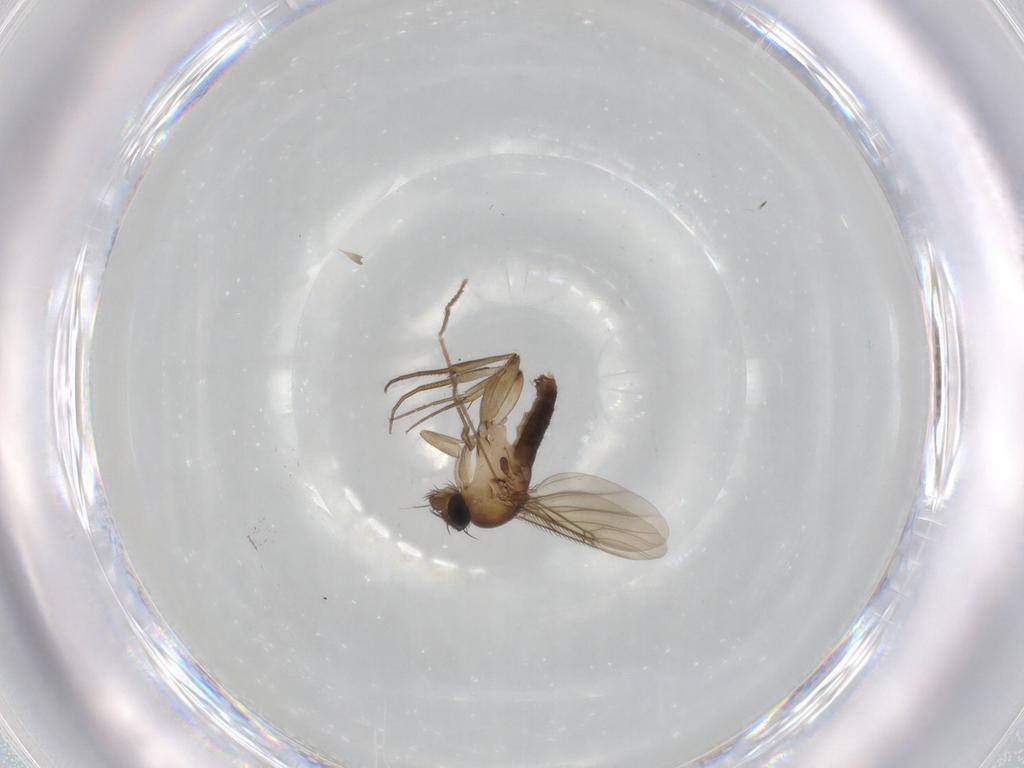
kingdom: Animalia
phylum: Arthropoda
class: Insecta
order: Diptera
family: Phoridae
